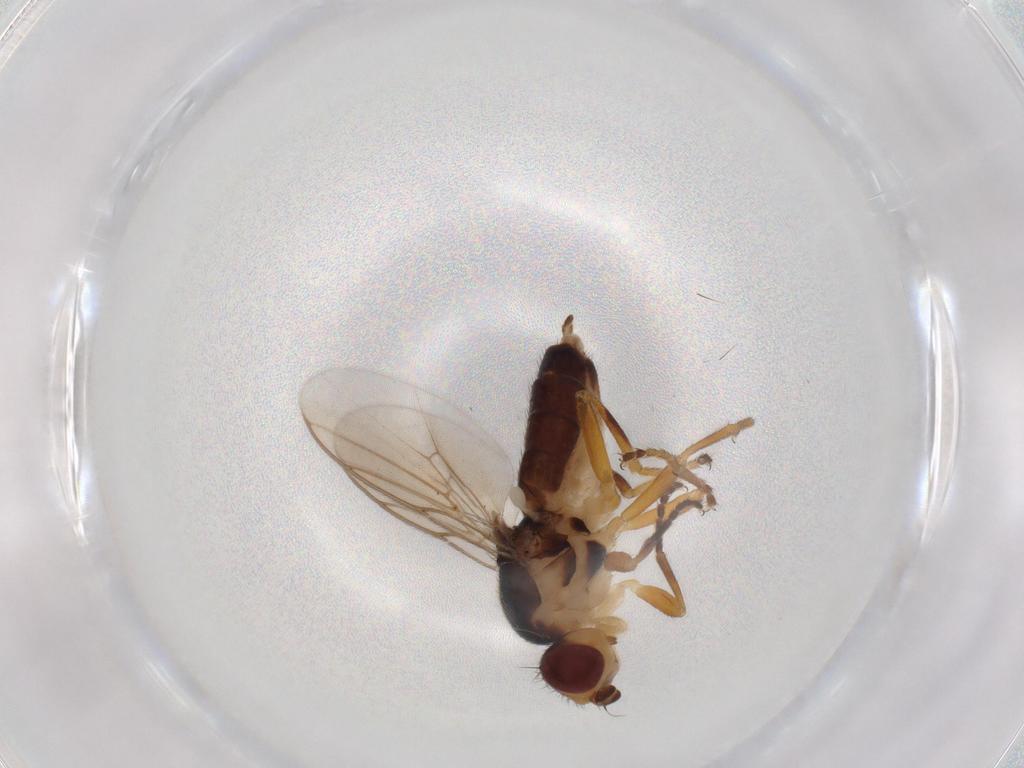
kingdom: Animalia
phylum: Arthropoda
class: Insecta
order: Diptera
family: Chloropidae
